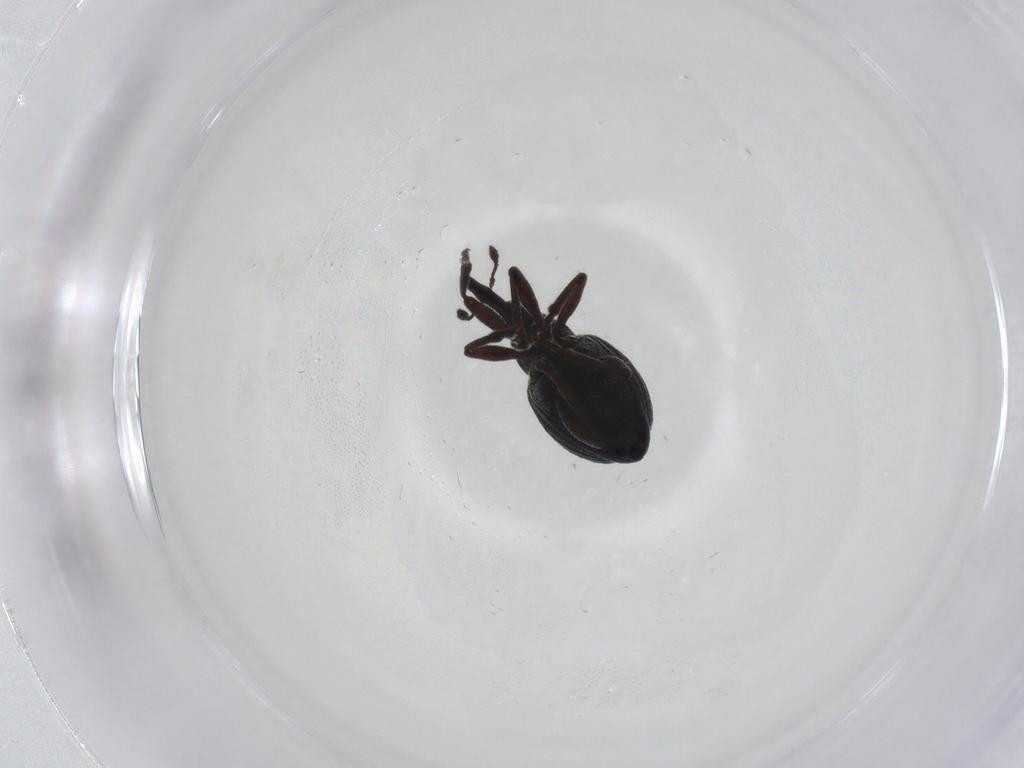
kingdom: Animalia
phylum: Arthropoda
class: Insecta
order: Coleoptera
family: Brentidae
